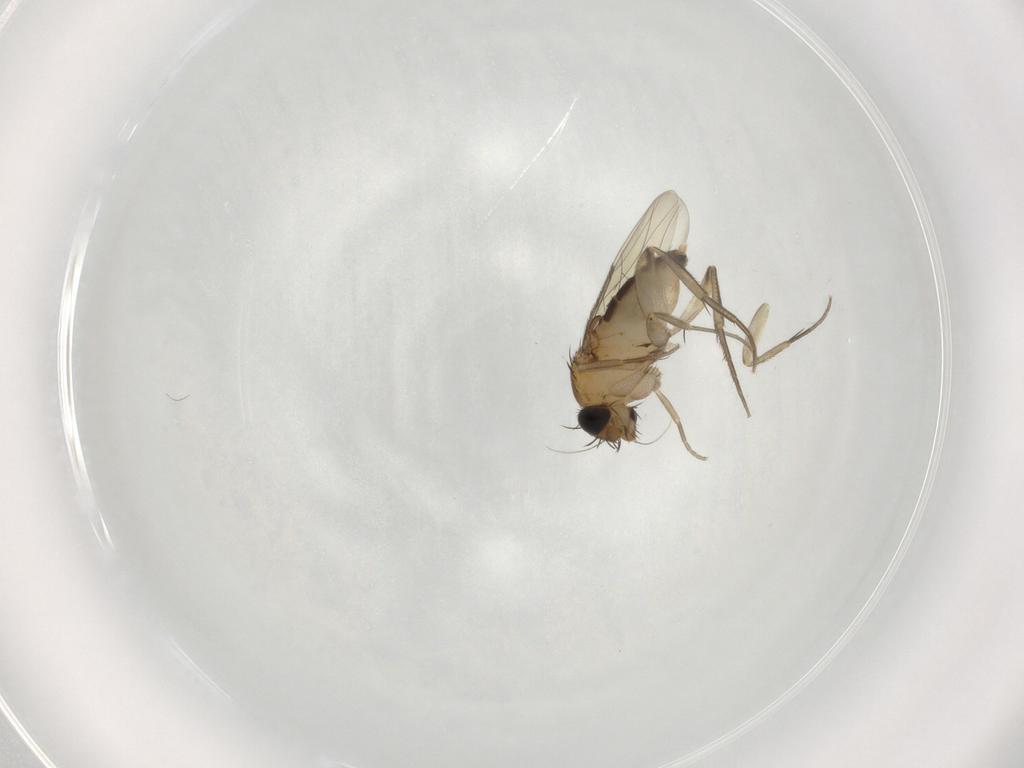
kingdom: Animalia
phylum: Arthropoda
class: Insecta
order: Diptera
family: Phoridae
